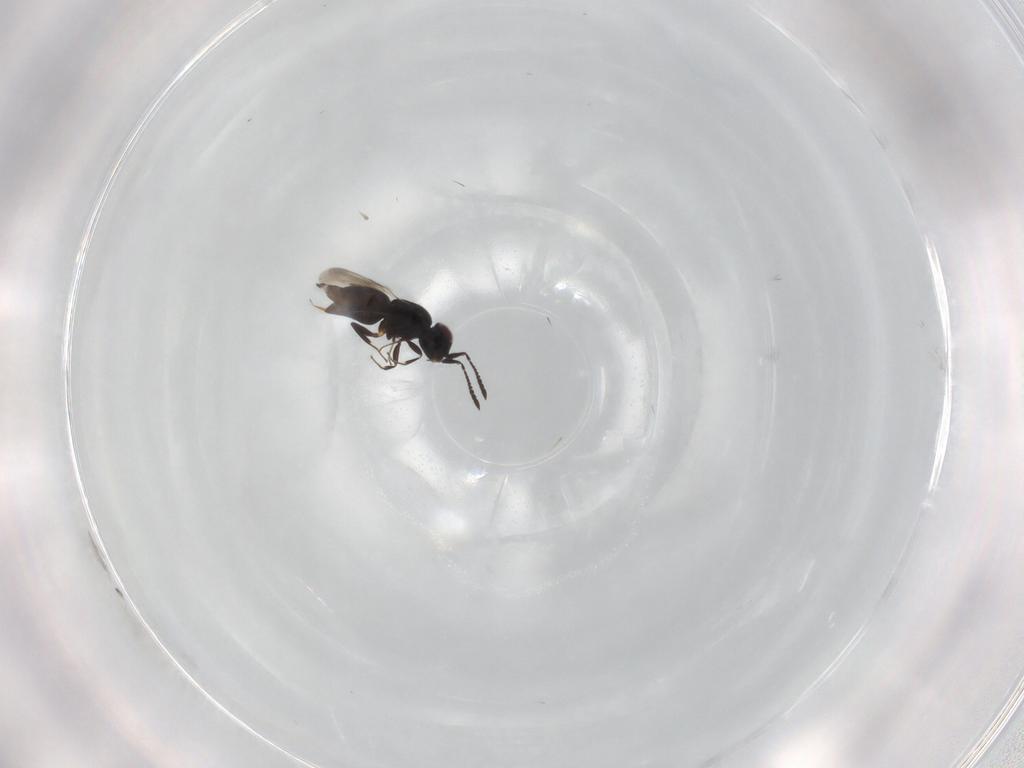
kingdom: Animalia
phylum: Arthropoda
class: Insecta
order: Hymenoptera
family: Mymaridae
